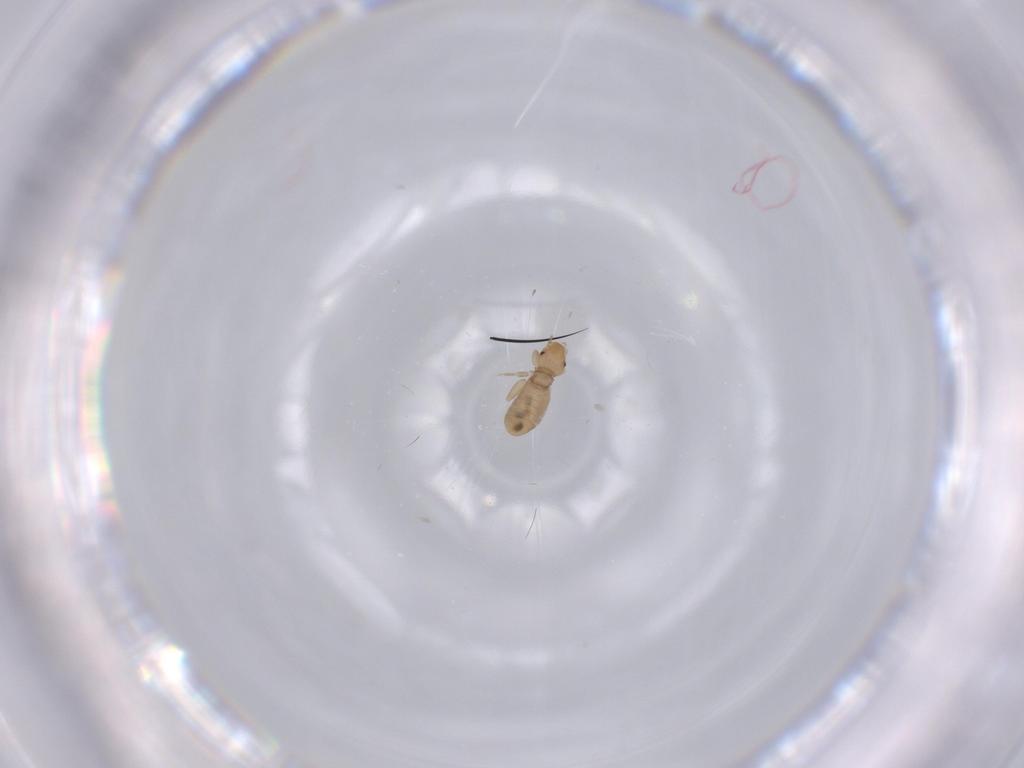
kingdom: Animalia
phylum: Arthropoda
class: Insecta
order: Psocodea
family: Liposcelididae
